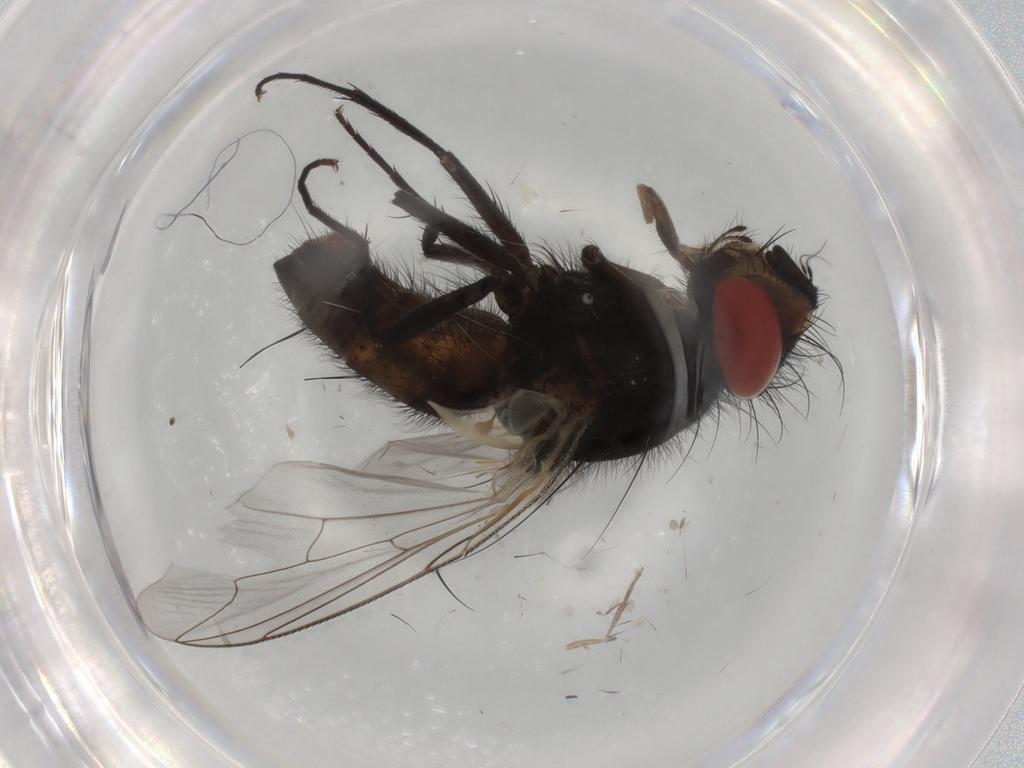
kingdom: Animalia
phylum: Arthropoda
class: Insecta
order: Diptera
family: Sarcophagidae
